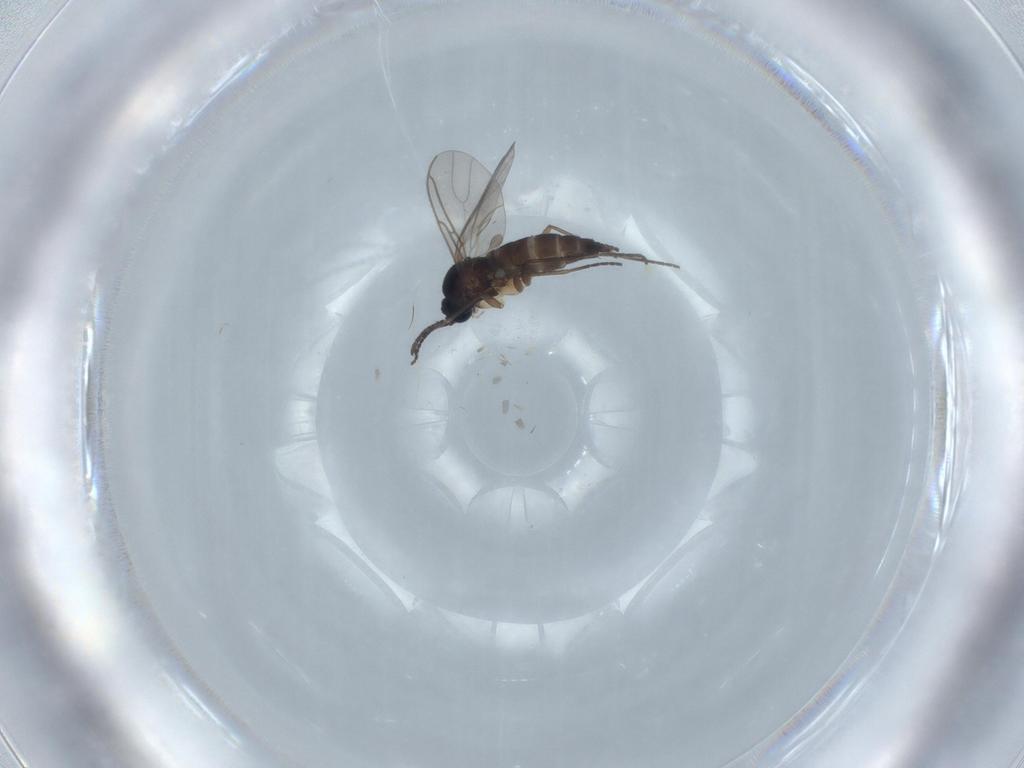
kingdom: Animalia
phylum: Arthropoda
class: Insecta
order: Diptera
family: Sciaridae
